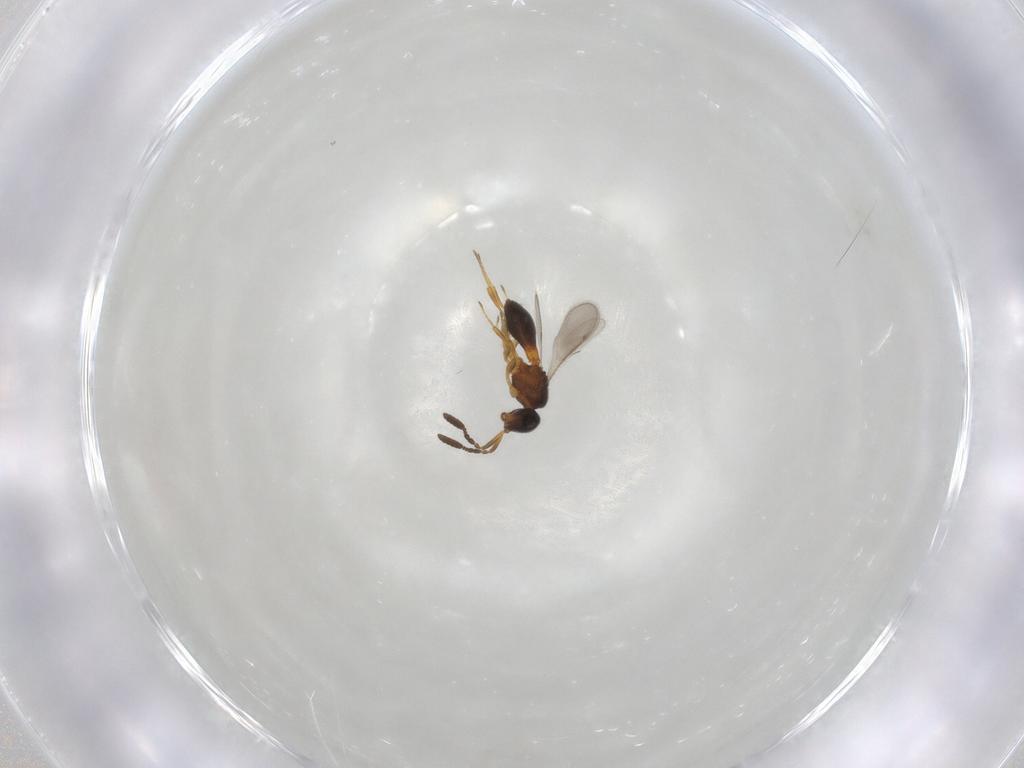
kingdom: Animalia
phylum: Arthropoda
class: Insecta
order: Hymenoptera
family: Scelionidae
